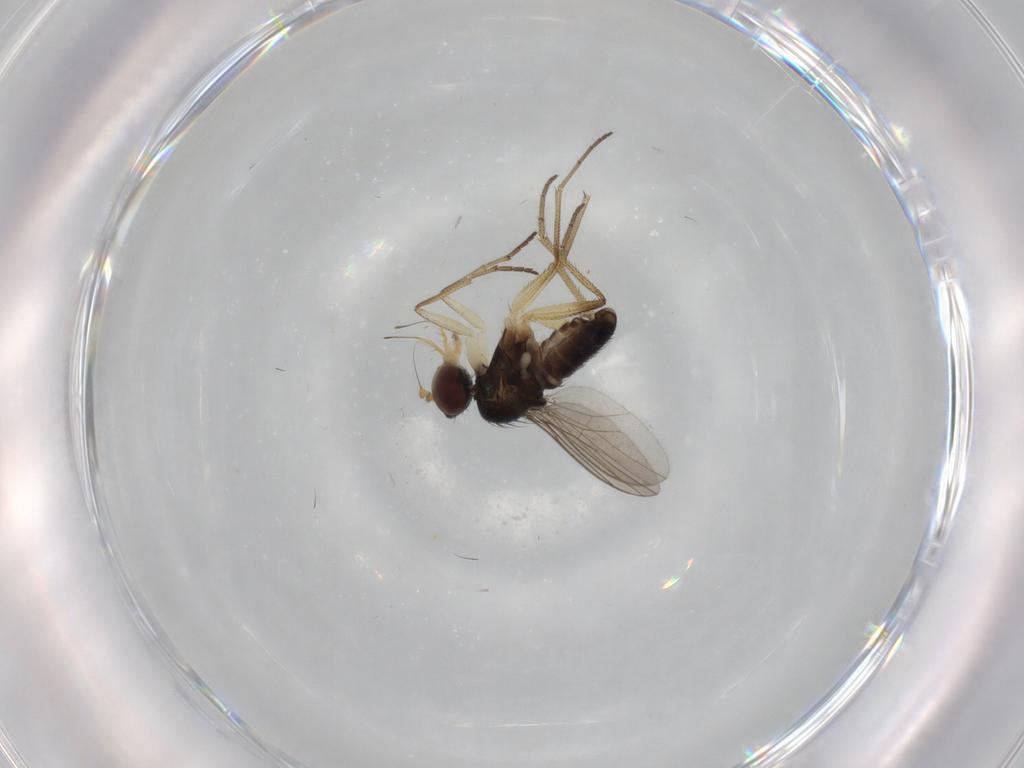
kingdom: Animalia
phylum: Arthropoda
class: Insecta
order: Diptera
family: Dolichopodidae
